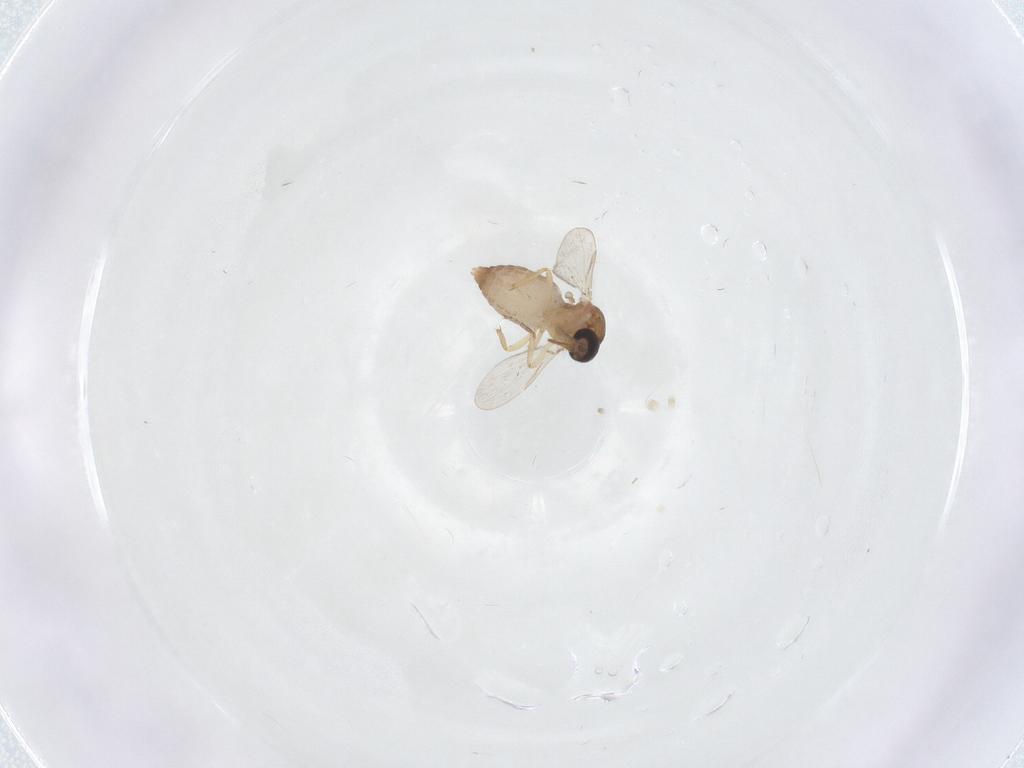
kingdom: Animalia
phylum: Arthropoda
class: Insecta
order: Diptera
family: Ceratopogonidae
